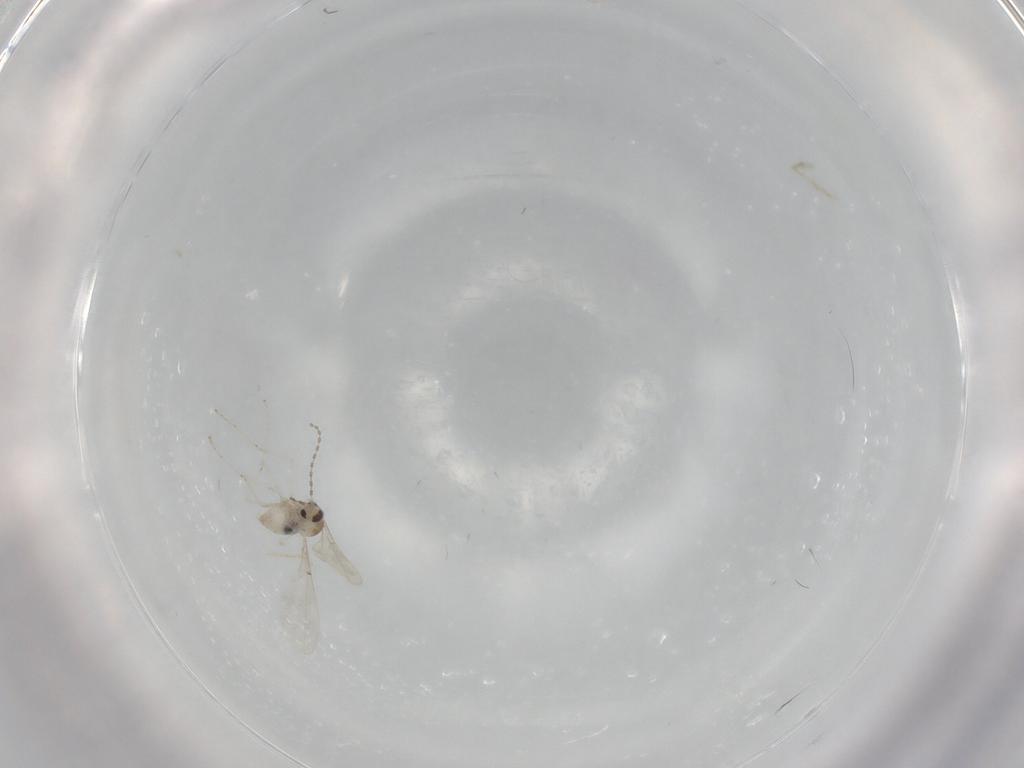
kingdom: Animalia
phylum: Arthropoda
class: Insecta
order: Diptera
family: Cecidomyiidae
